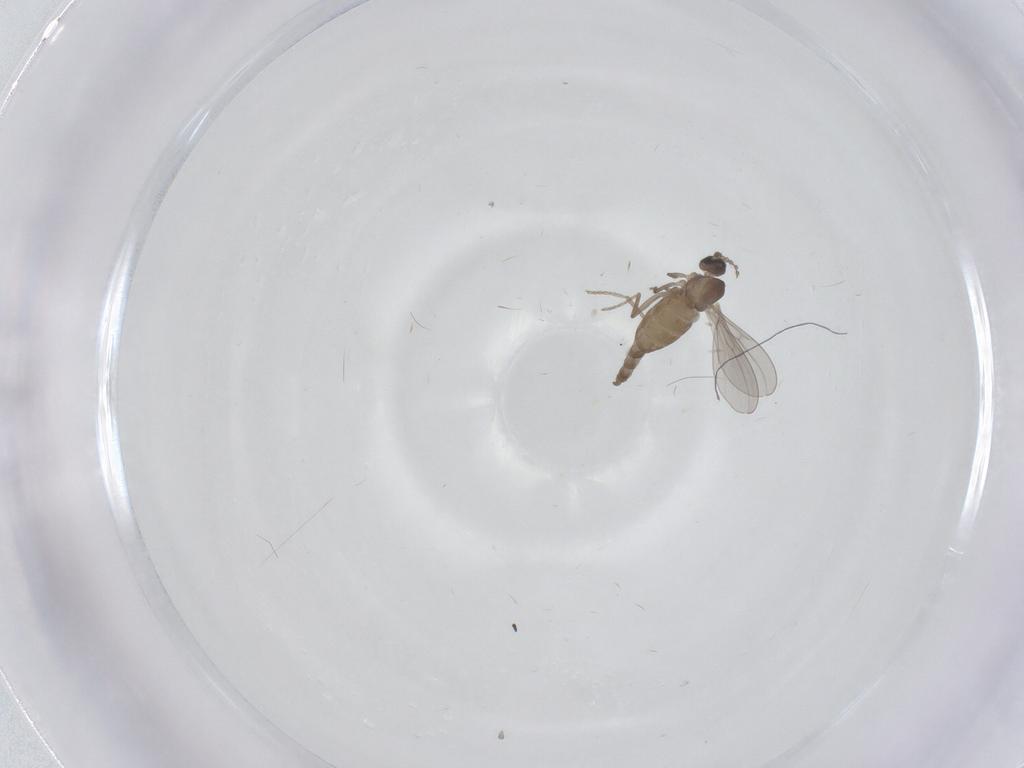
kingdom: Animalia
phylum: Arthropoda
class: Insecta
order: Diptera
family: Cecidomyiidae
